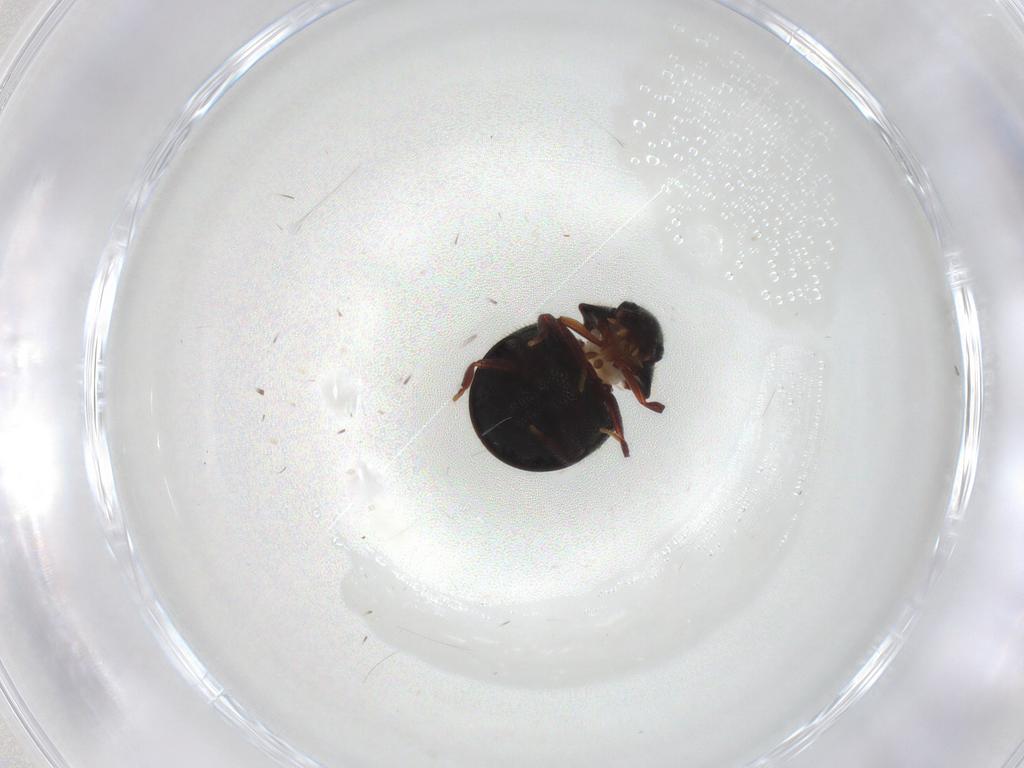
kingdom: Animalia
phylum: Arthropoda
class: Insecta
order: Coleoptera
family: Ptinidae
